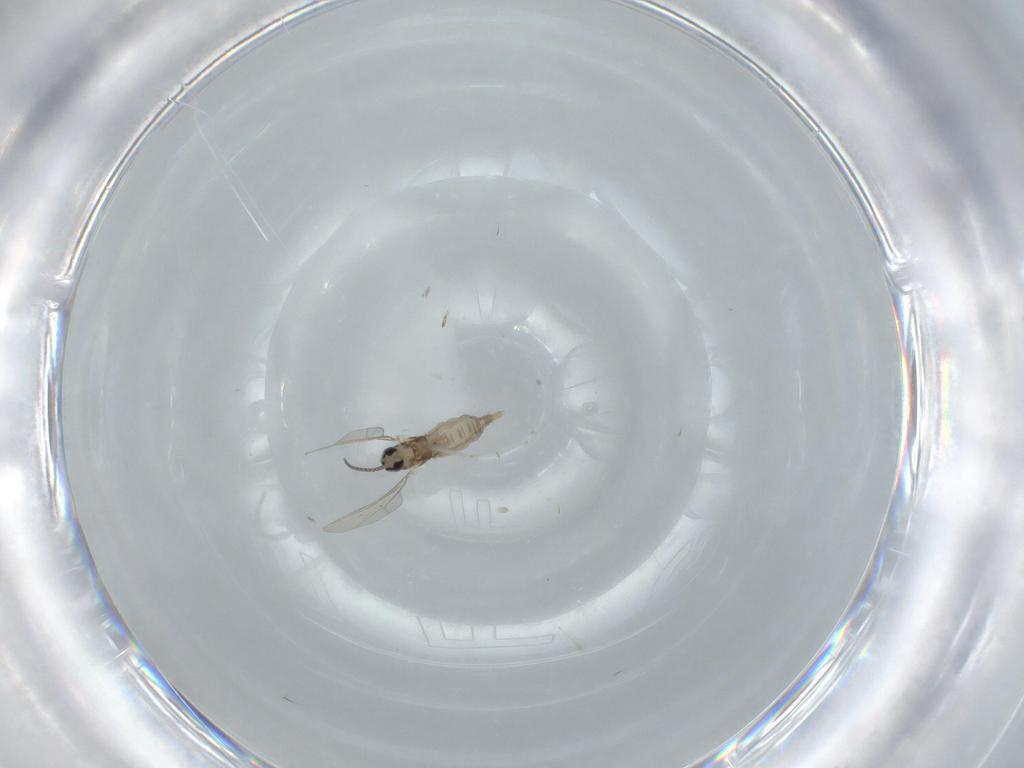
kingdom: Animalia
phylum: Arthropoda
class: Insecta
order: Diptera
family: Cecidomyiidae
